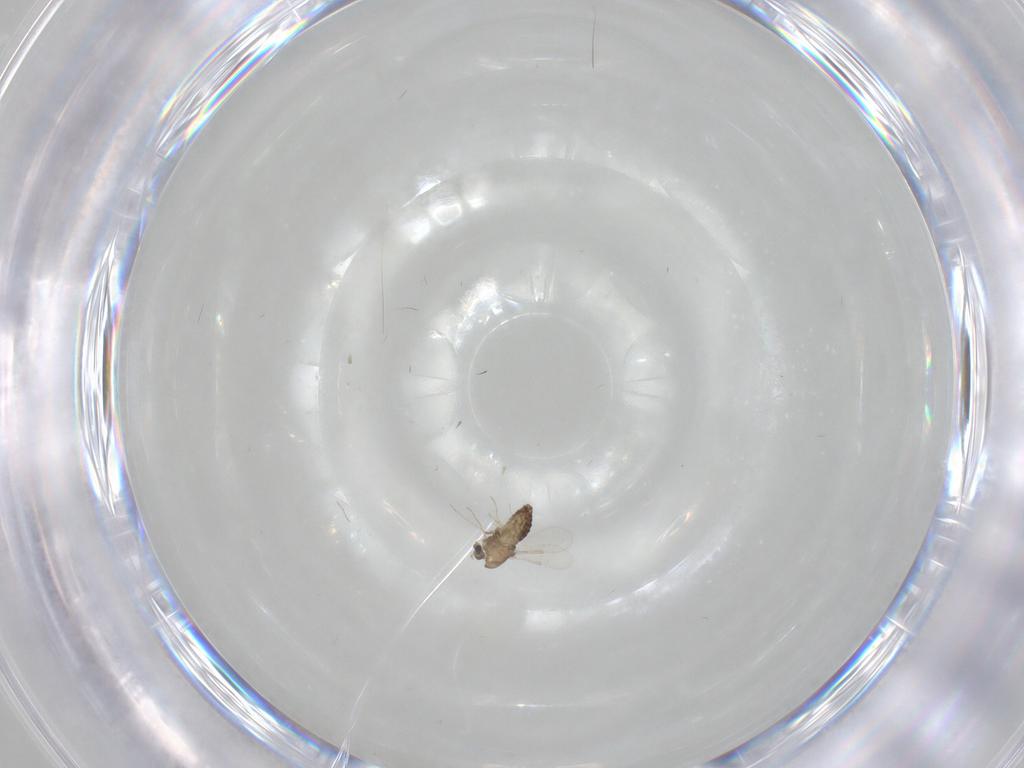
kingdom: Animalia
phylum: Arthropoda
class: Insecta
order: Diptera
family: Chironomidae
